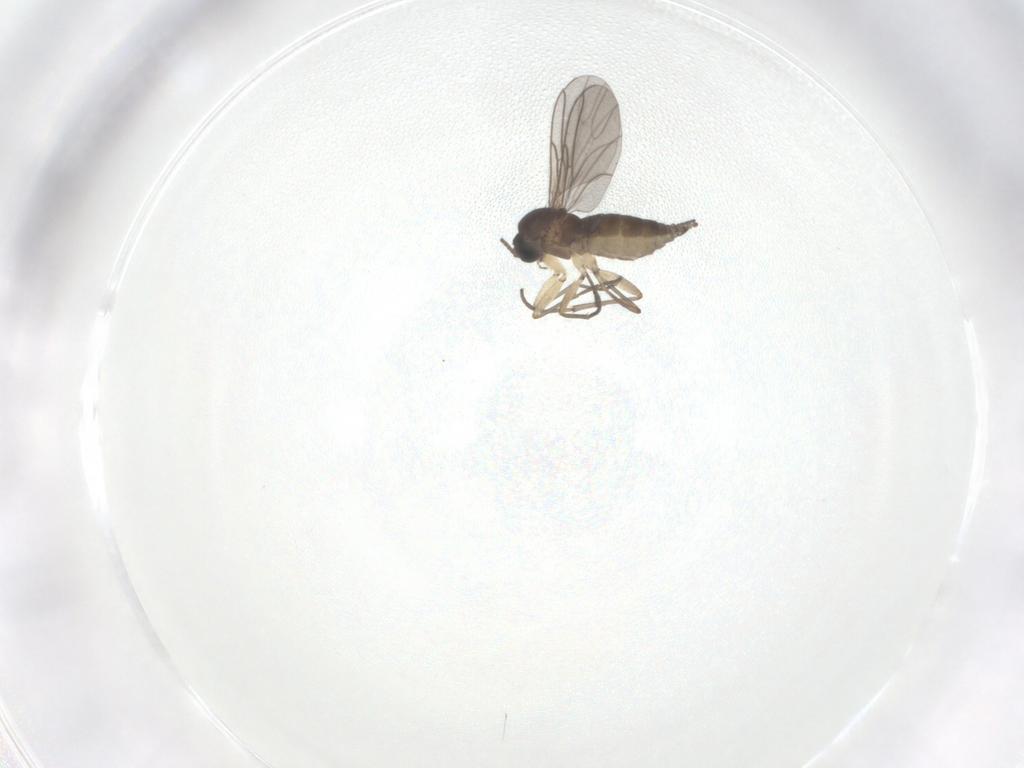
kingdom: Animalia
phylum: Arthropoda
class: Insecta
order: Diptera
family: Sciaridae
